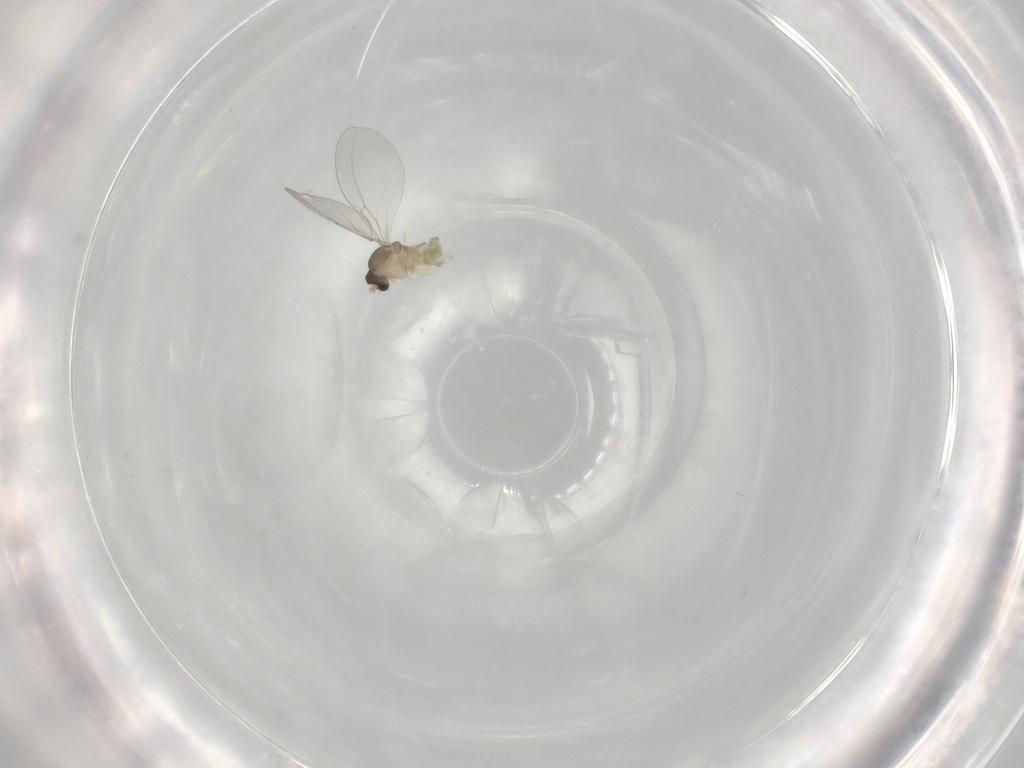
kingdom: Animalia
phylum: Arthropoda
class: Insecta
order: Diptera
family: Cecidomyiidae
